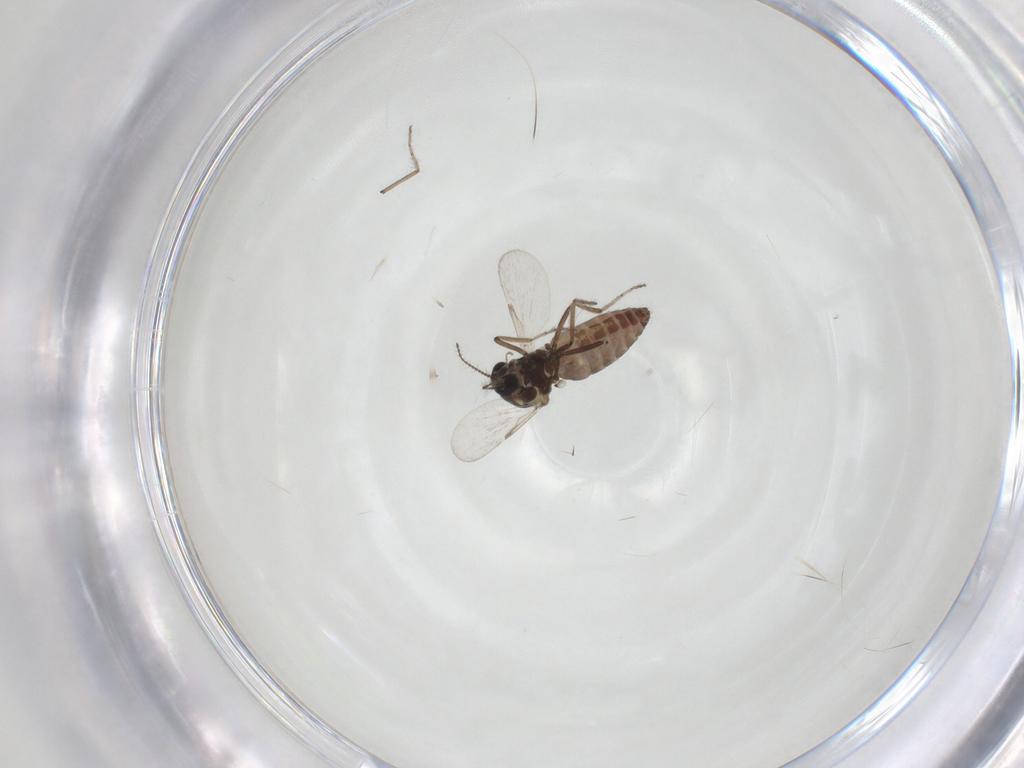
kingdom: Animalia
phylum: Arthropoda
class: Insecta
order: Diptera
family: Ceratopogonidae
